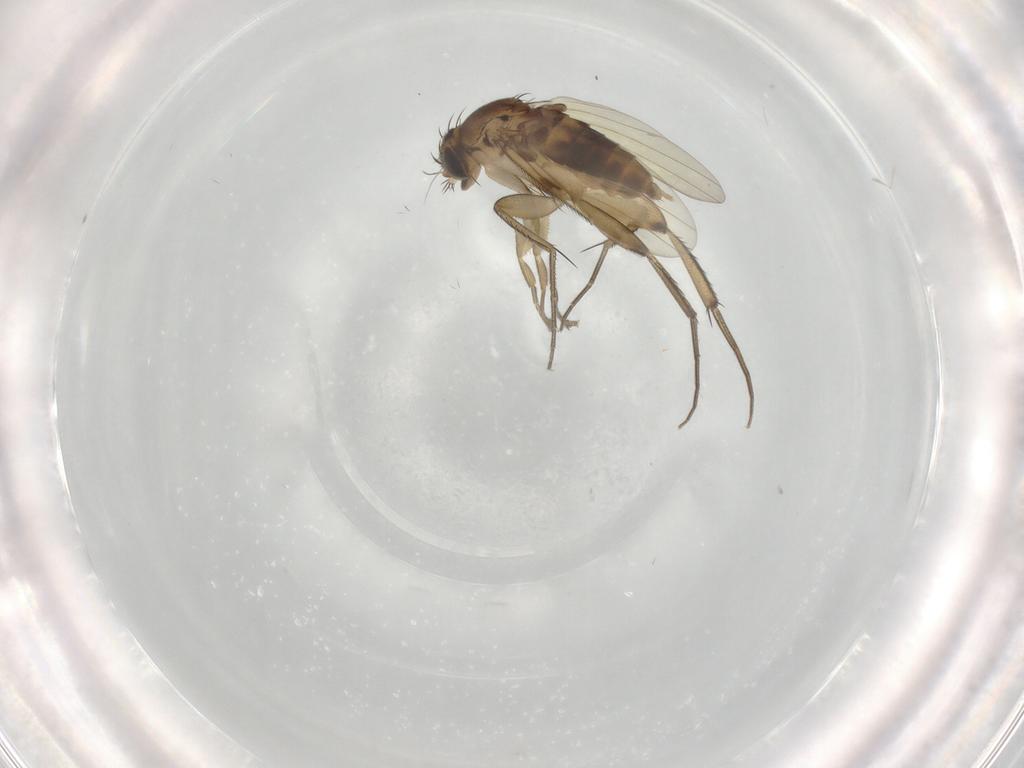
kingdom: Animalia
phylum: Arthropoda
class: Insecta
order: Diptera
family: Phoridae
